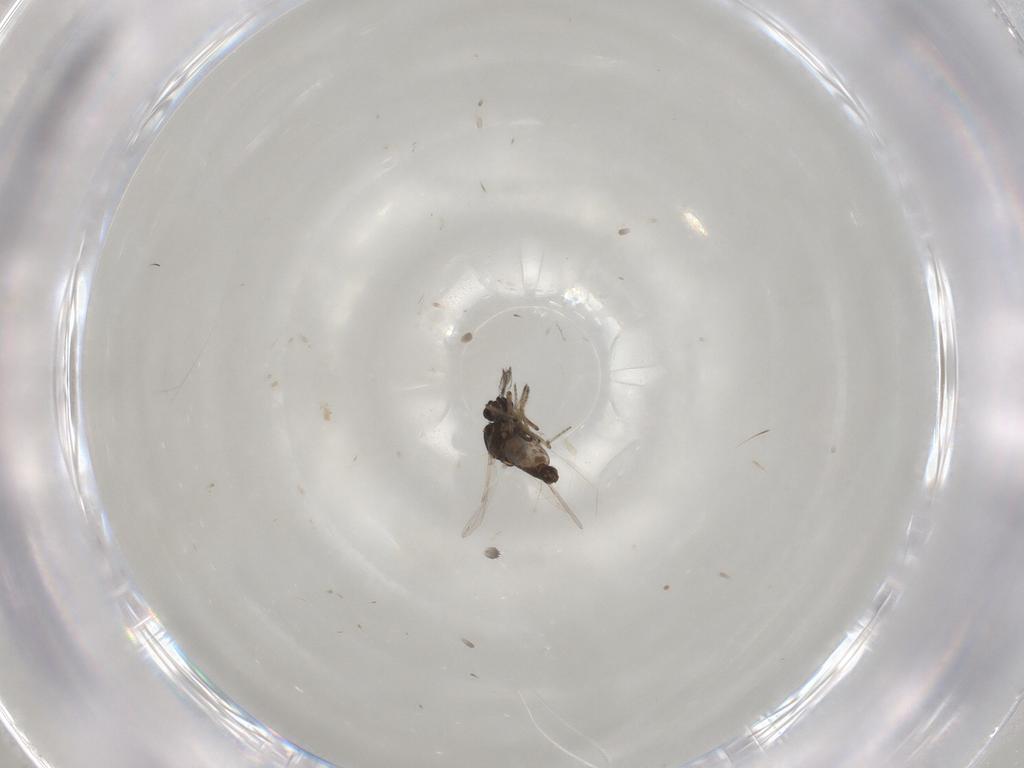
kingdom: Animalia
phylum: Arthropoda
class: Insecta
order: Diptera
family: Ceratopogonidae
